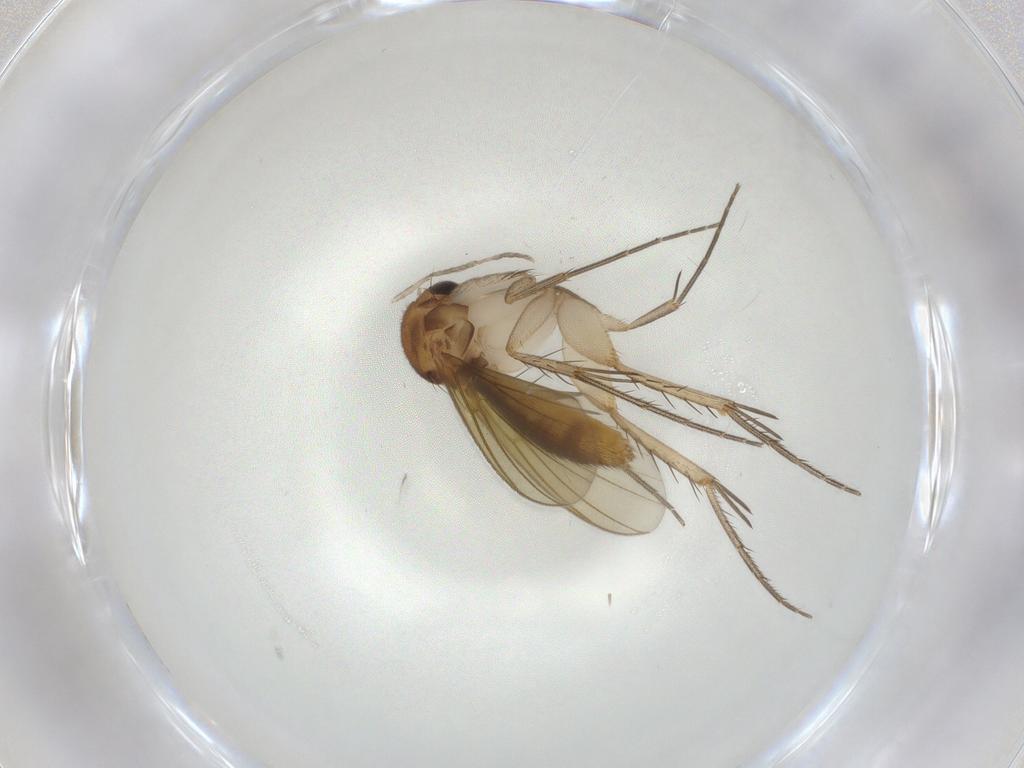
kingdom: Animalia
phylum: Arthropoda
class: Insecta
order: Diptera
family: Mycetophilidae
